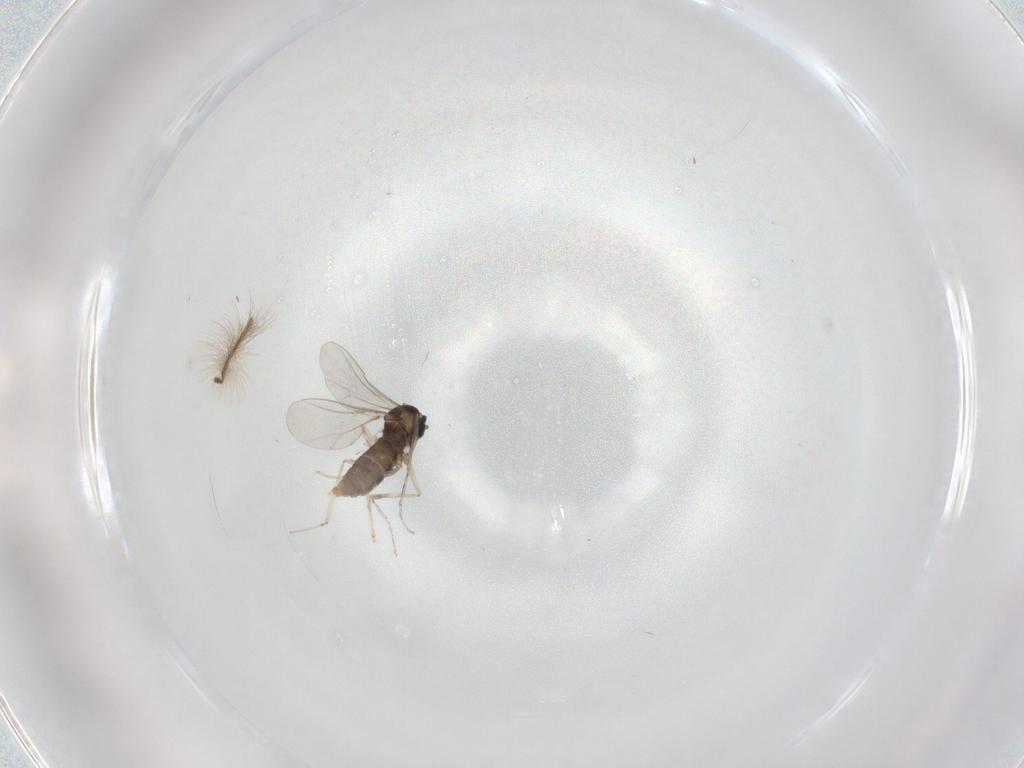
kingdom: Animalia
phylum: Arthropoda
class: Insecta
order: Diptera
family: Cecidomyiidae
